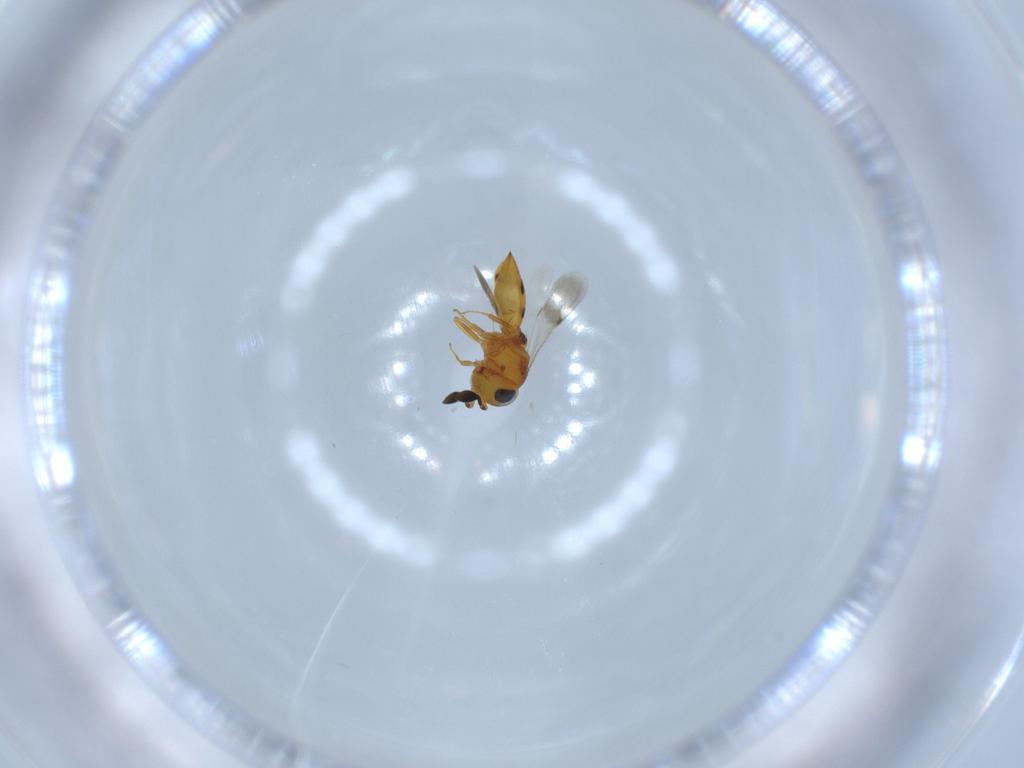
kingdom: Animalia
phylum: Arthropoda
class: Insecta
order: Hymenoptera
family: Scelionidae
